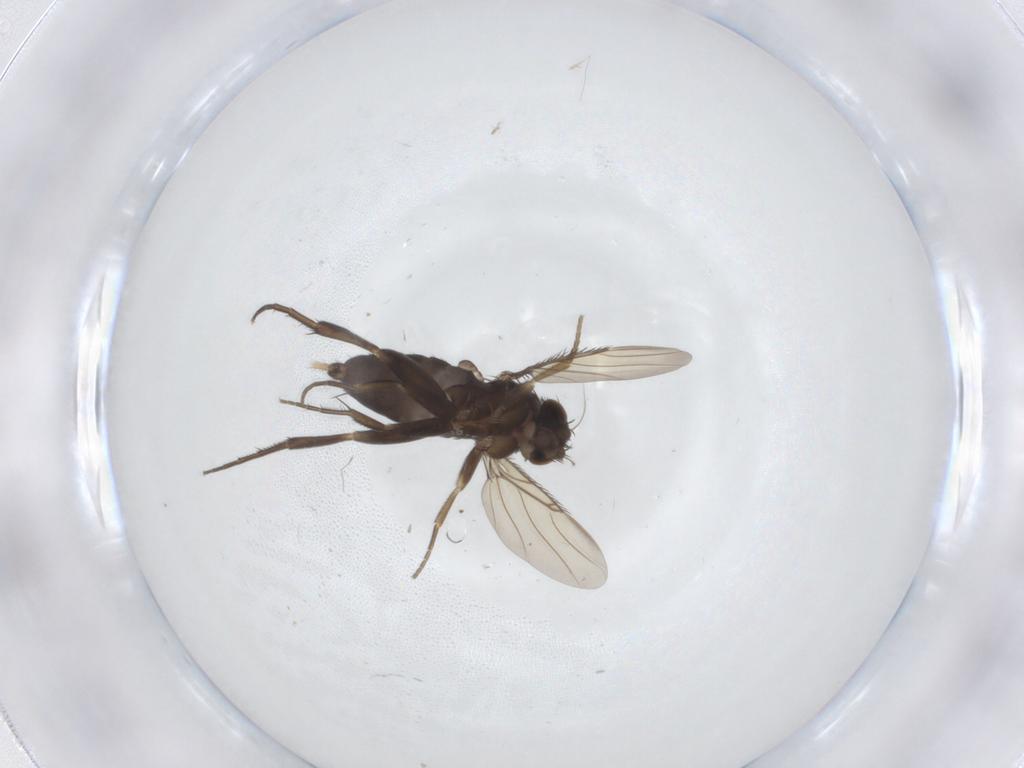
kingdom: Animalia
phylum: Arthropoda
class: Insecta
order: Diptera
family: Phoridae
